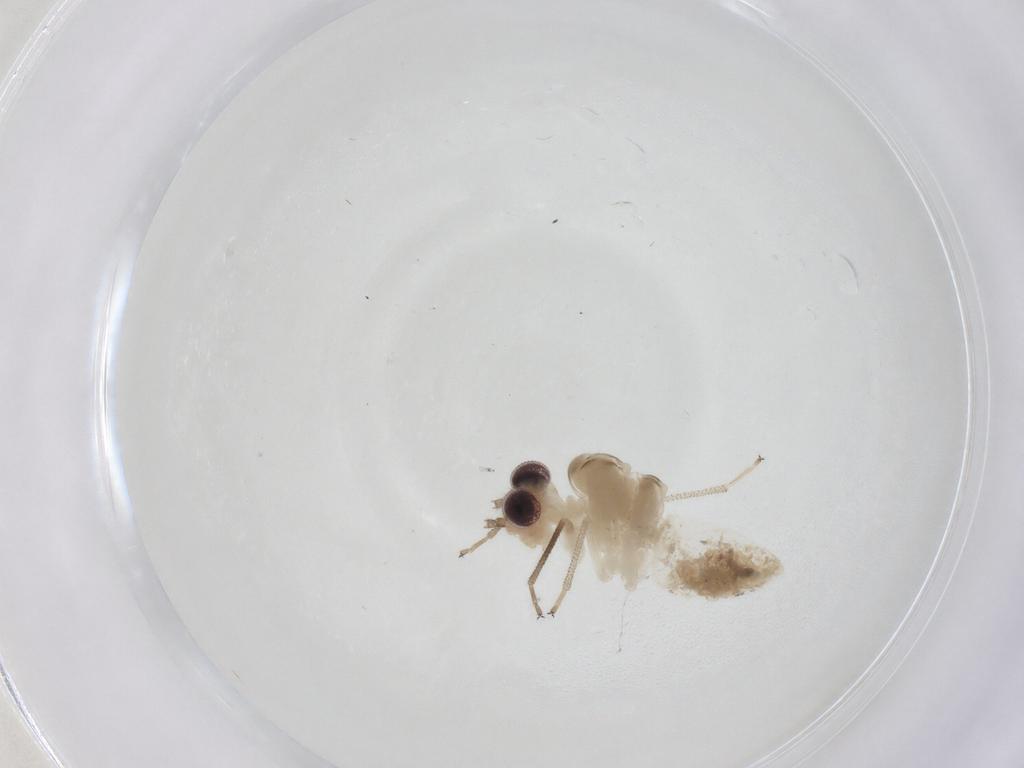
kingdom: Animalia
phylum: Arthropoda
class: Insecta
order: Psocodea
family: Caeciliusidae
